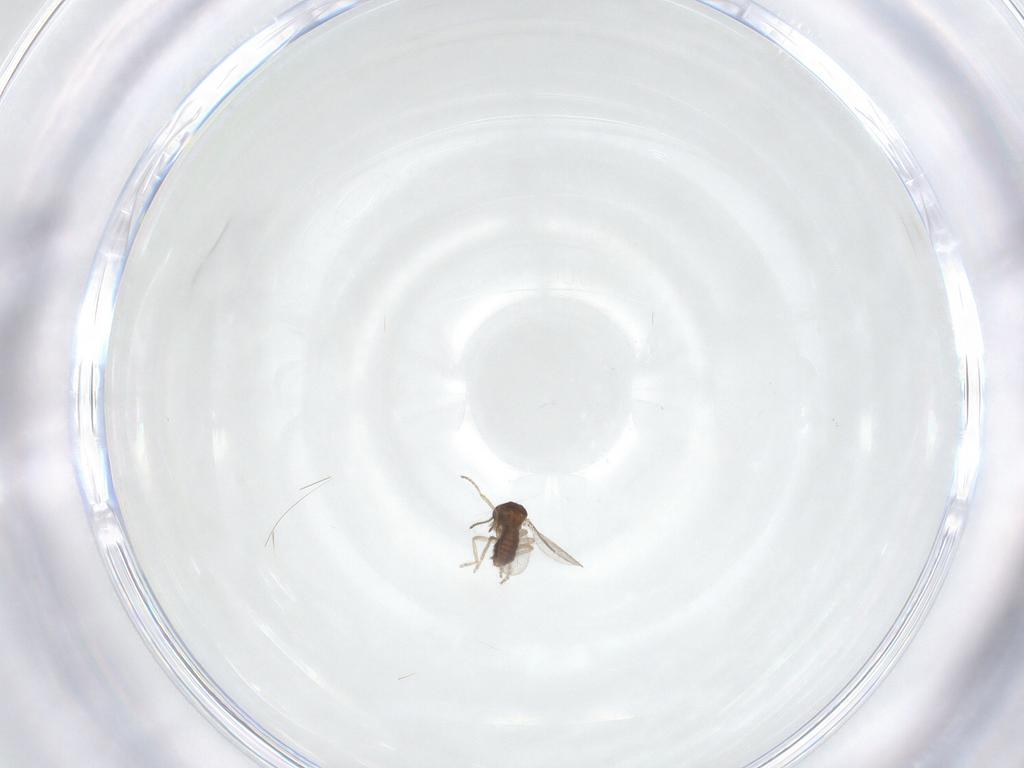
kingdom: Animalia
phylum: Arthropoda
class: Insecta
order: Diptera
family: Ceratopogonidae
